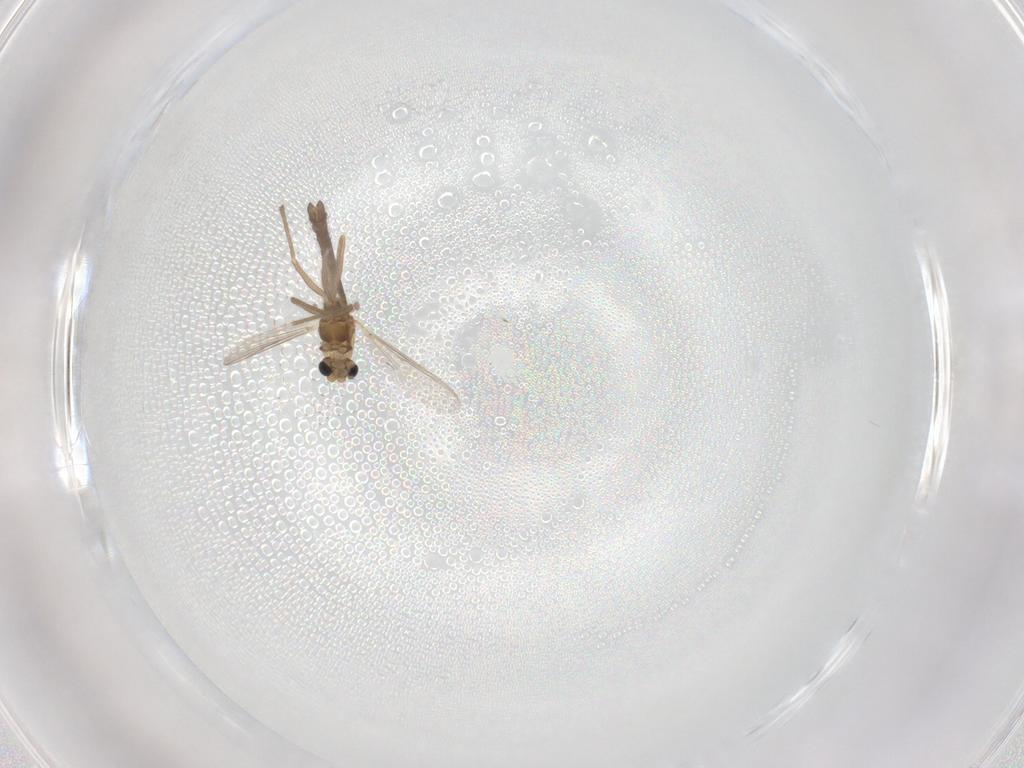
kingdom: Animalia
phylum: Arthropoda
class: Insecta
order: Diptera
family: Chironomidae
